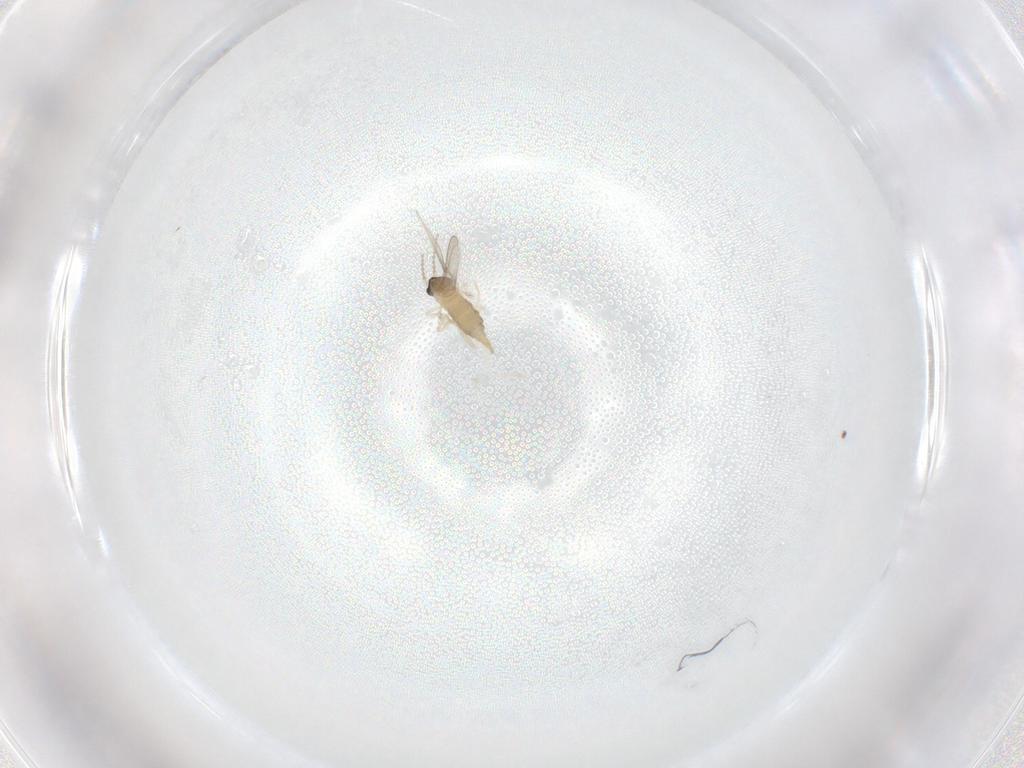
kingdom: Animalia
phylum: Arthropoda
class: Insecta
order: Diptera
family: Cecidomyiidae
